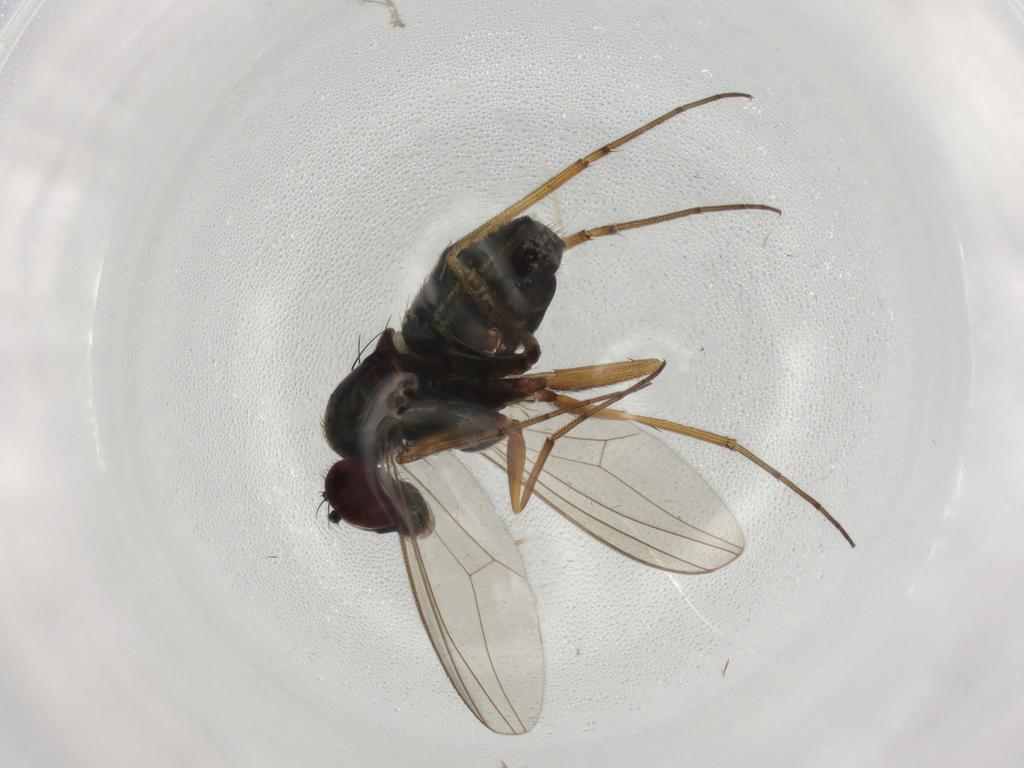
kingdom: Animalia
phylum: Arthropoda
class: Insecta
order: Diptera
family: Dolichopodidae
